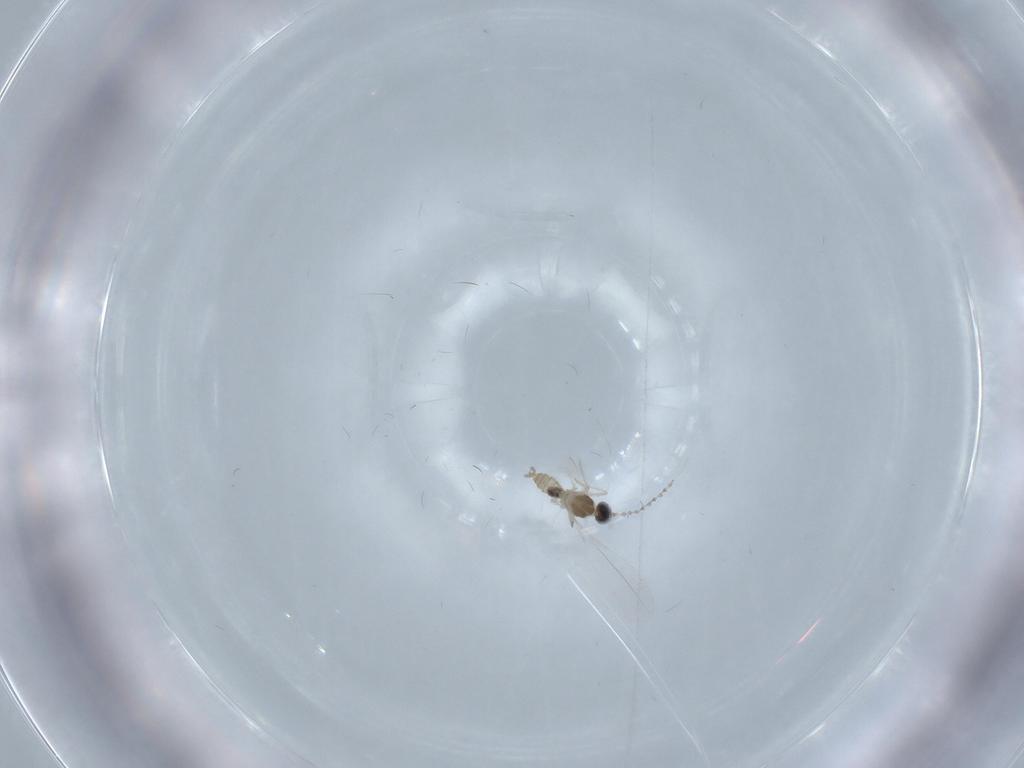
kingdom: Animalia
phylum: Arthropoda
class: Insecta
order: Diptera
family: Cecidomyiidae
